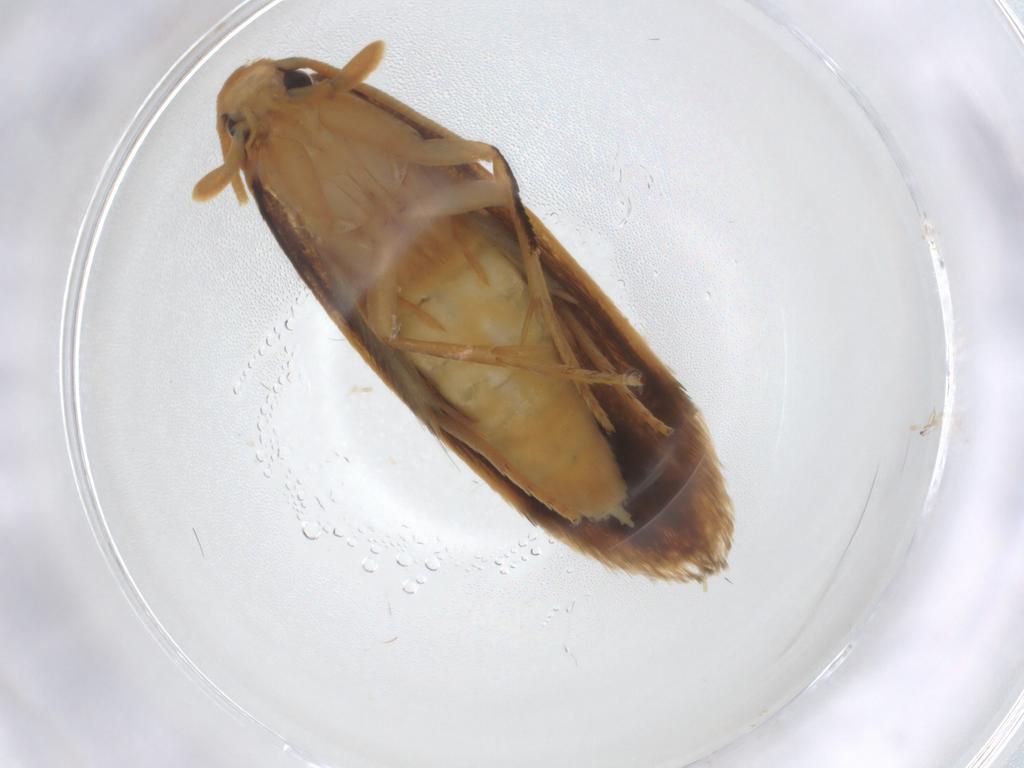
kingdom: Animalia
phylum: Arthropoda
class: Insecta
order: Lepidoptera
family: Tineidae
